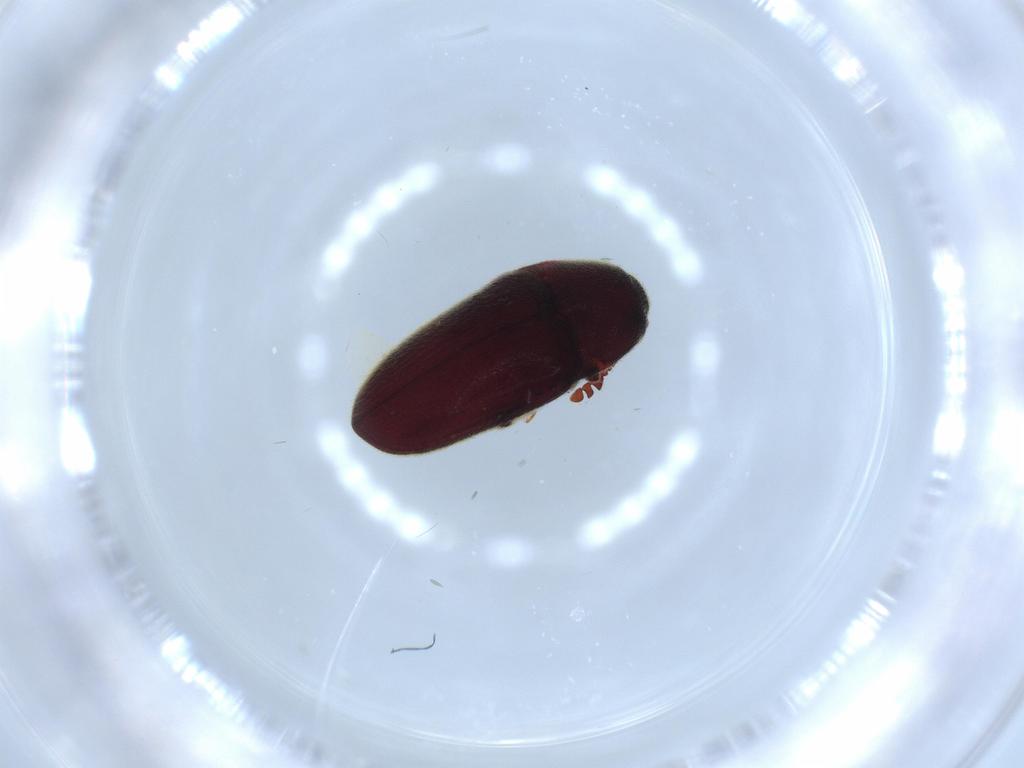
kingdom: Animalia
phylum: Arthropoda
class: Insecta
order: Coleoptera
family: Throscidae
